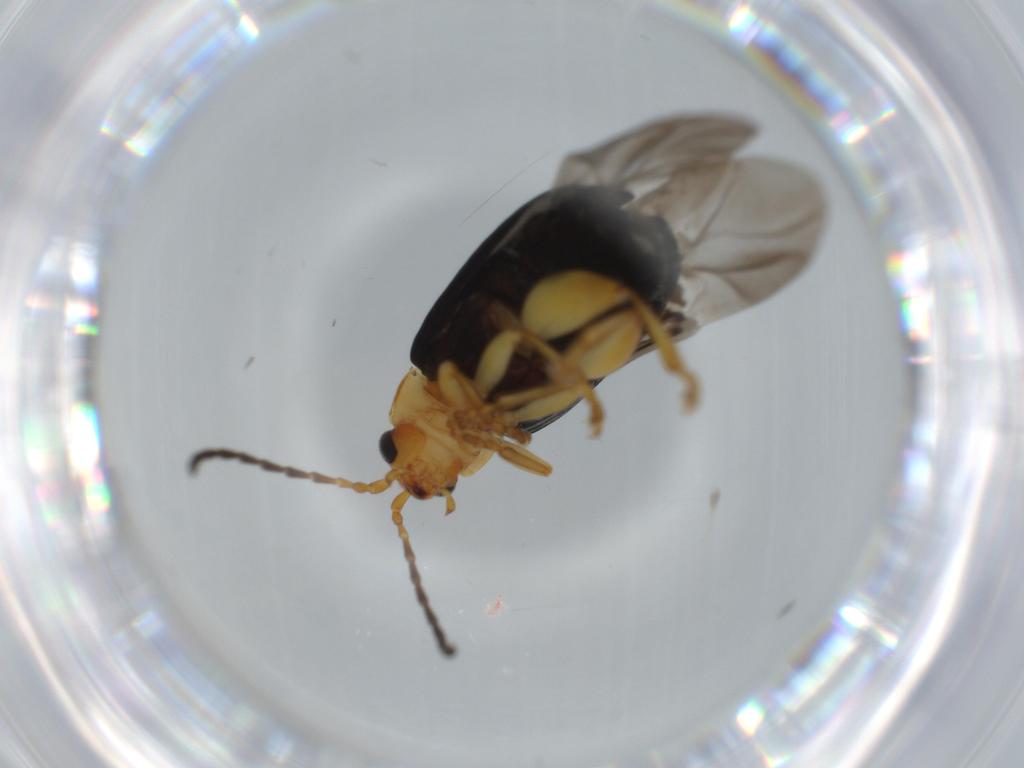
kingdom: Animalia
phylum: Arthropoda
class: Insecta
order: Coleoptera
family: Chrysomelidae
